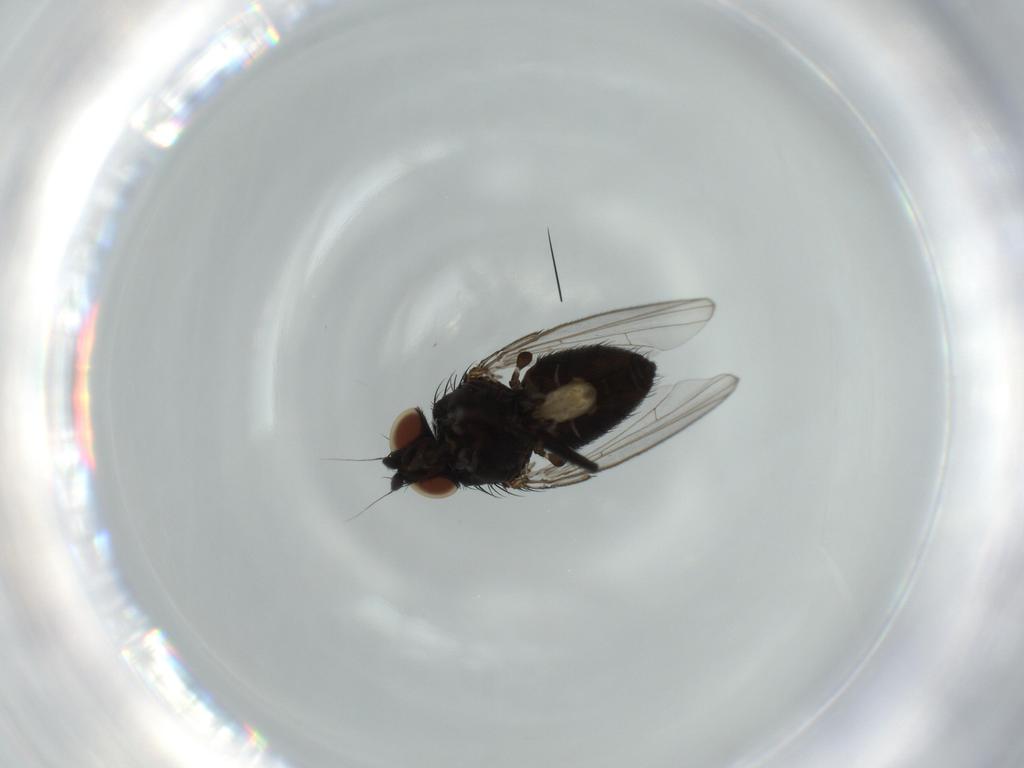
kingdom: Animalia
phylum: Arthropoda
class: Insecta
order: Diptera
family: Milichiidae
